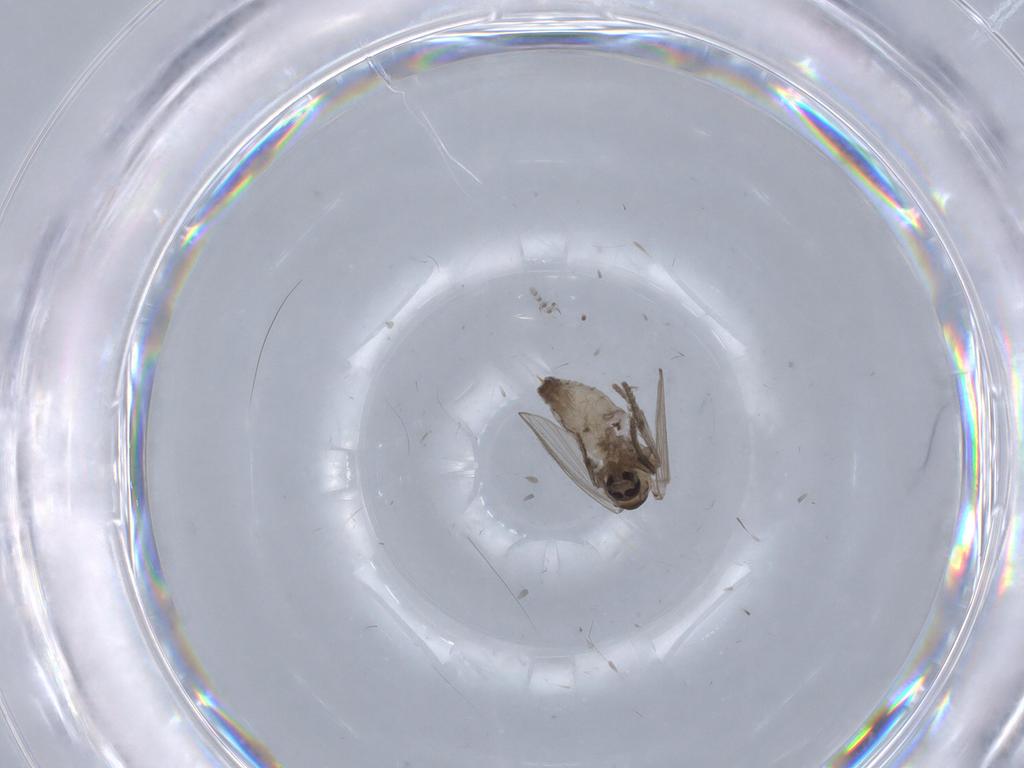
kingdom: Animalia
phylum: Arthropoda
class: Insecta
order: Diptera
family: Psychodidae
